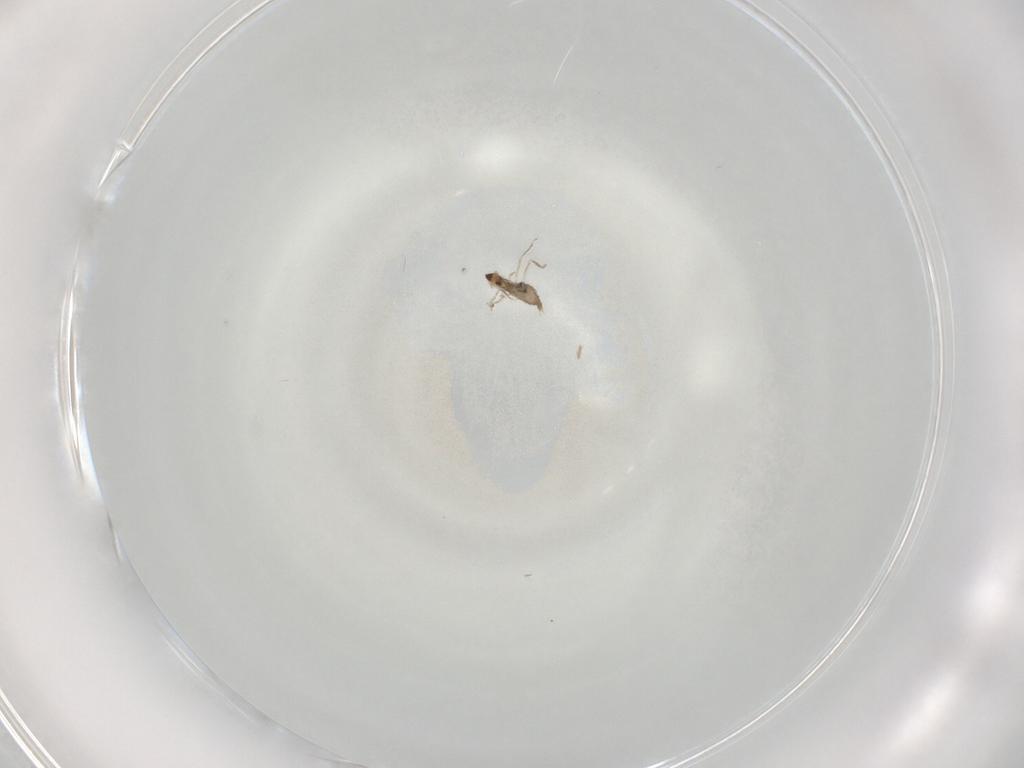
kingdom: Animalia
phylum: Arthropoda
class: Insecta
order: Diptera
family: Cecidomyiidae
